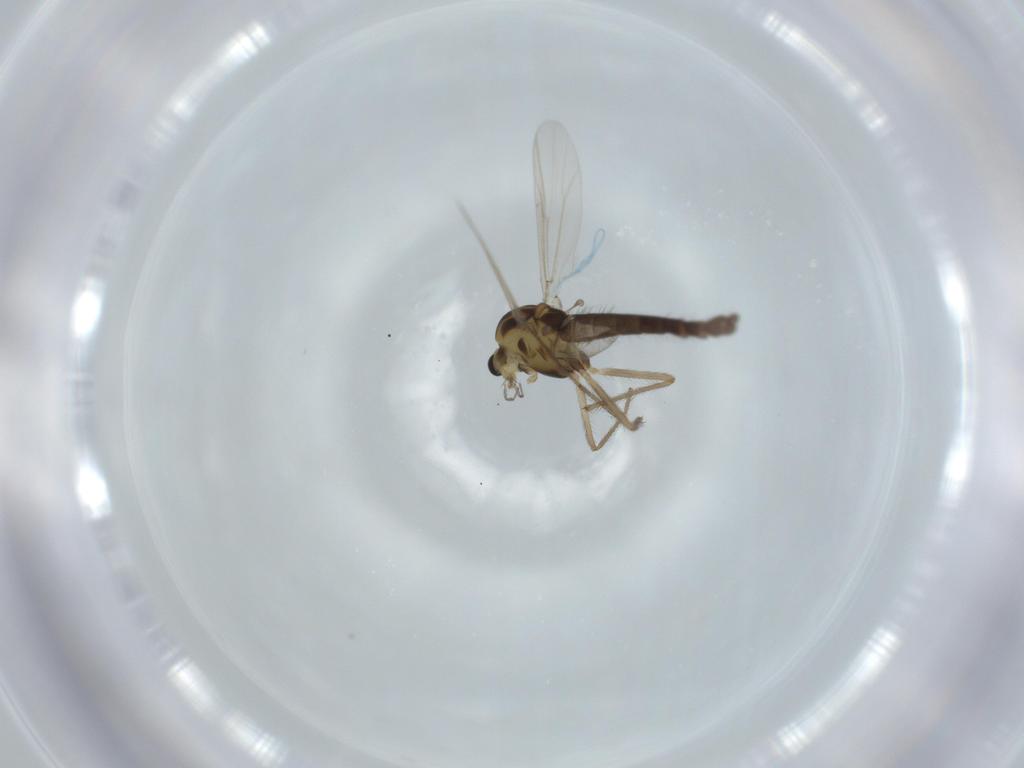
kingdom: Animalia
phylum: Arthropoda
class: Insecta
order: Diptera
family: Chironomidae
